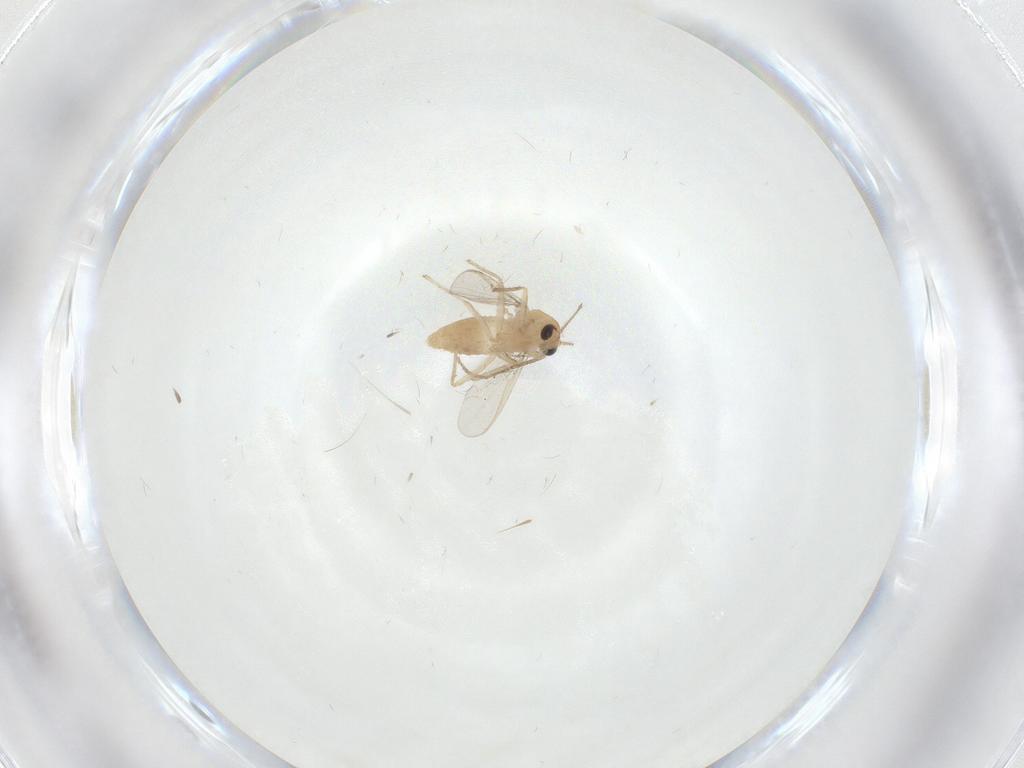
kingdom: Animalia
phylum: Arthropoda
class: Insecta
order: Diptera
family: Chironomidae
